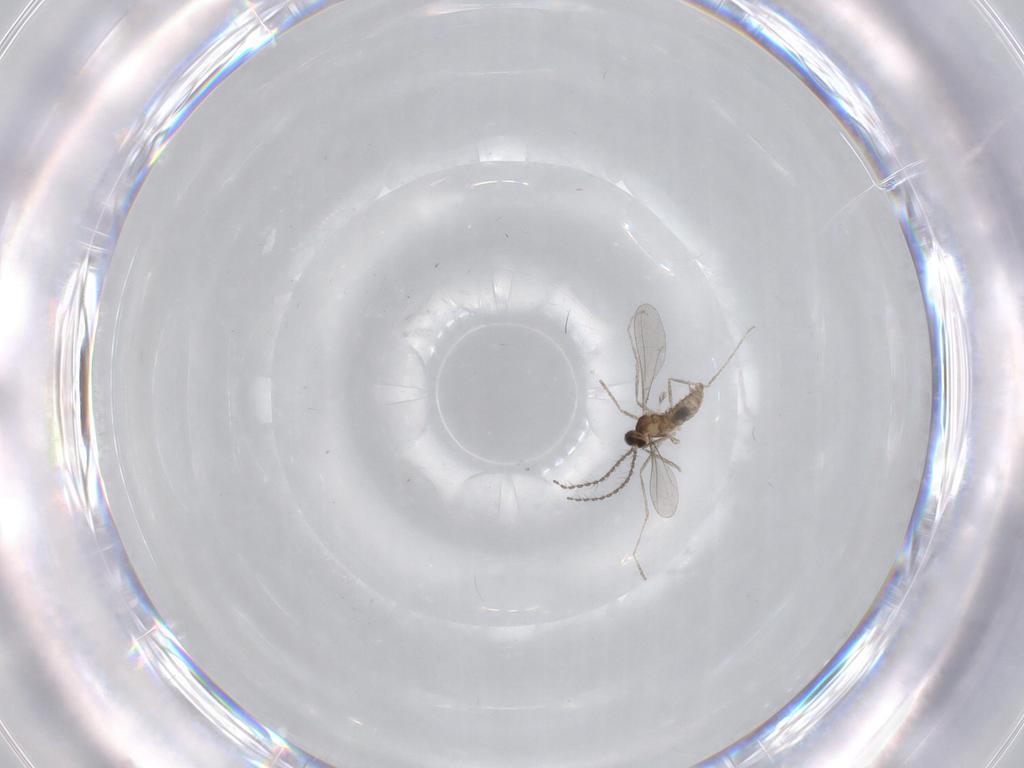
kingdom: Animalia
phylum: Arthropoda
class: Insecta
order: Diptera
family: Chironomidae
